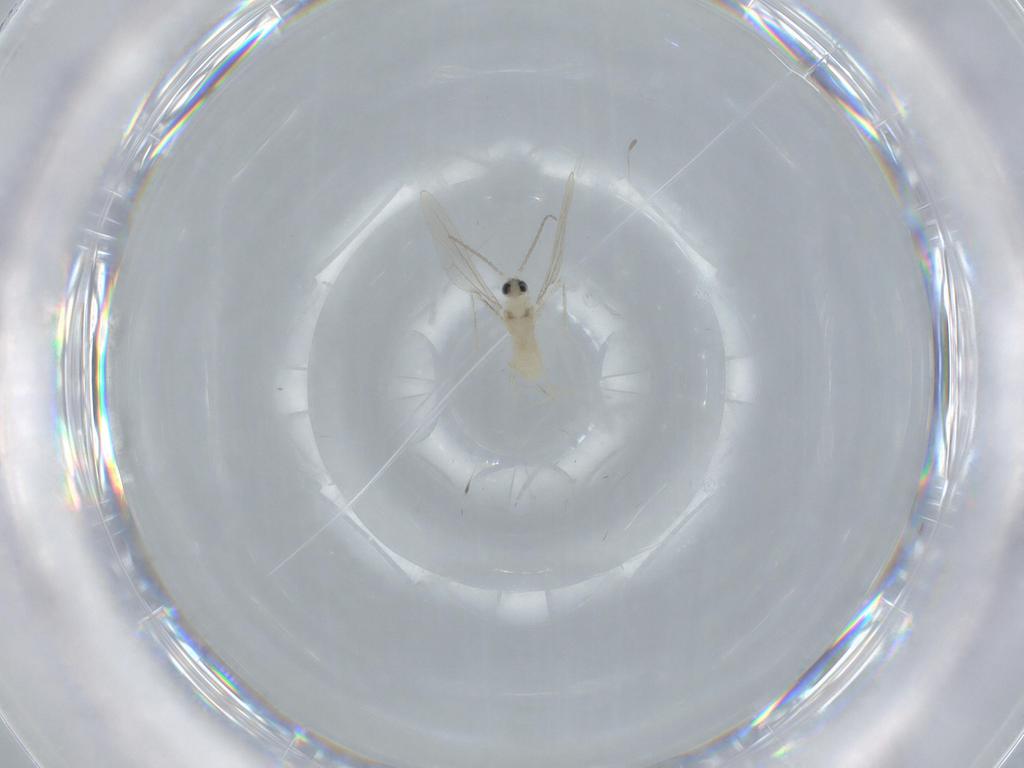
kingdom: Animalia
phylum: Arthropoda
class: Insecta
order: Diptera
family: Cecidomyiidae
